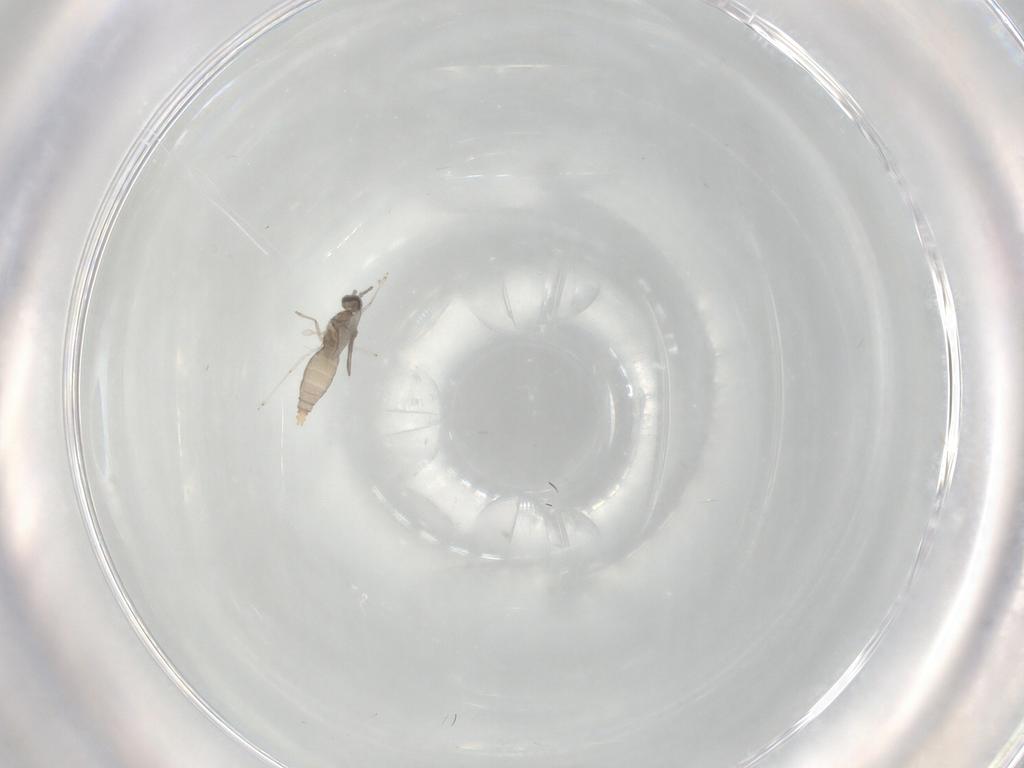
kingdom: Animalia
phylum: Arthropoda
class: Insecta
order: Diptera
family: Cecidomyiidae
